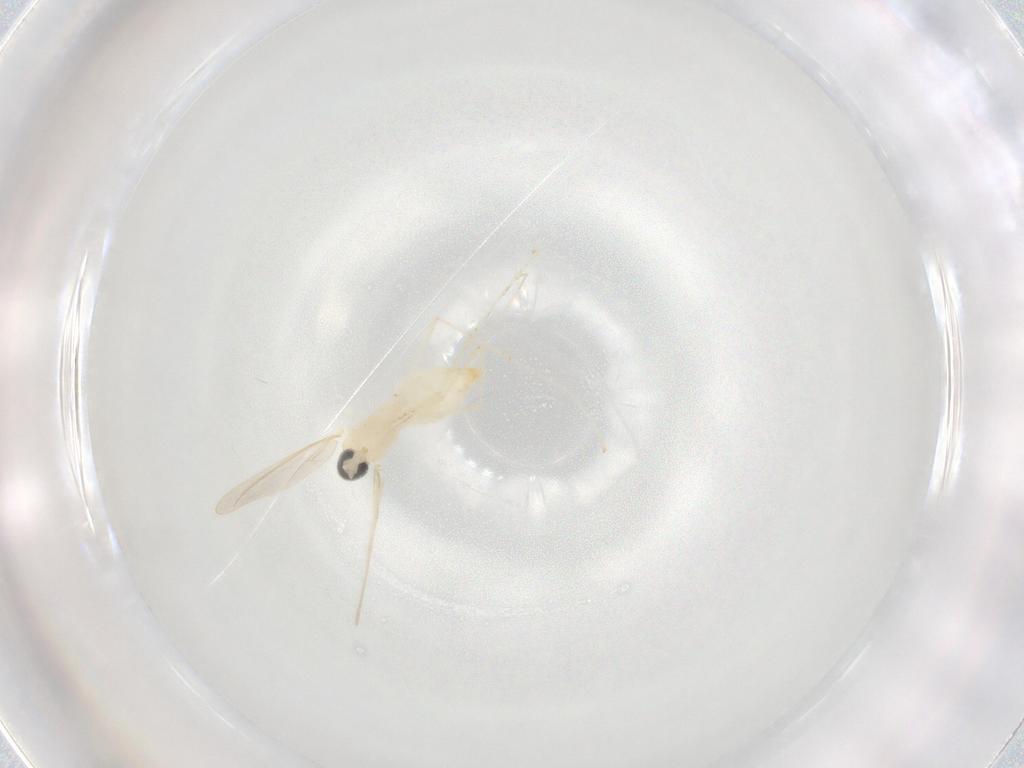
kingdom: Animalia
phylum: Arthropoda
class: Insecta
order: Diptera
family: Cecidomyiidae
